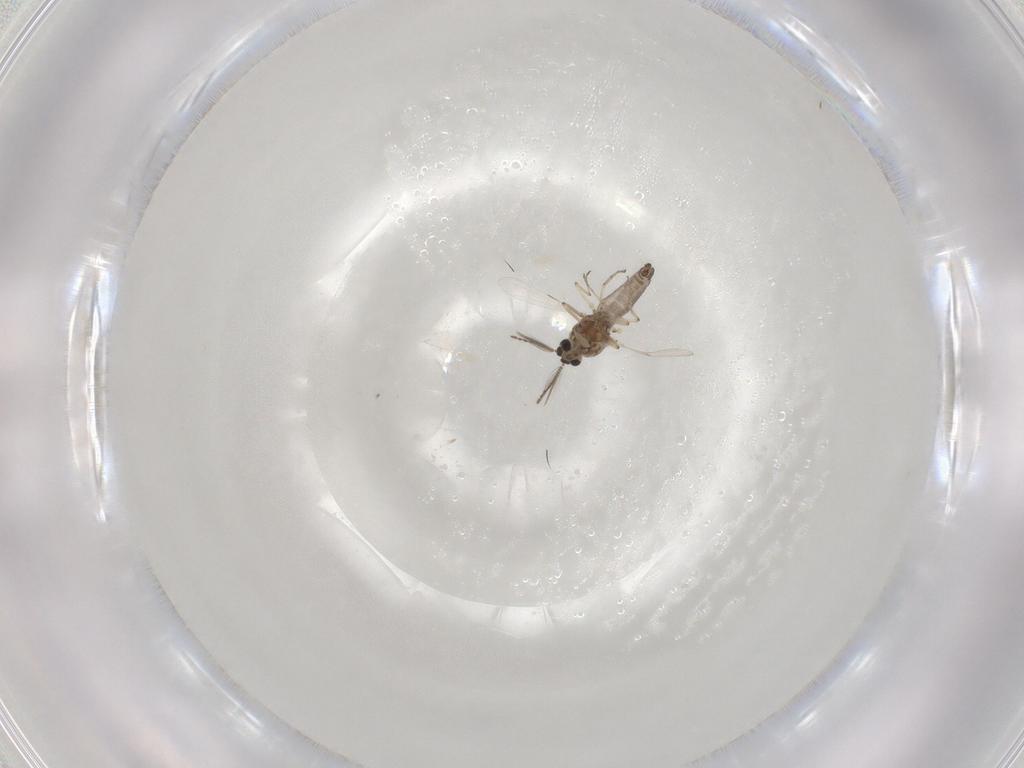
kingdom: Animalia
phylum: Arthropoda
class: Insecta
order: Diptera
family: Ceratopogonidae
